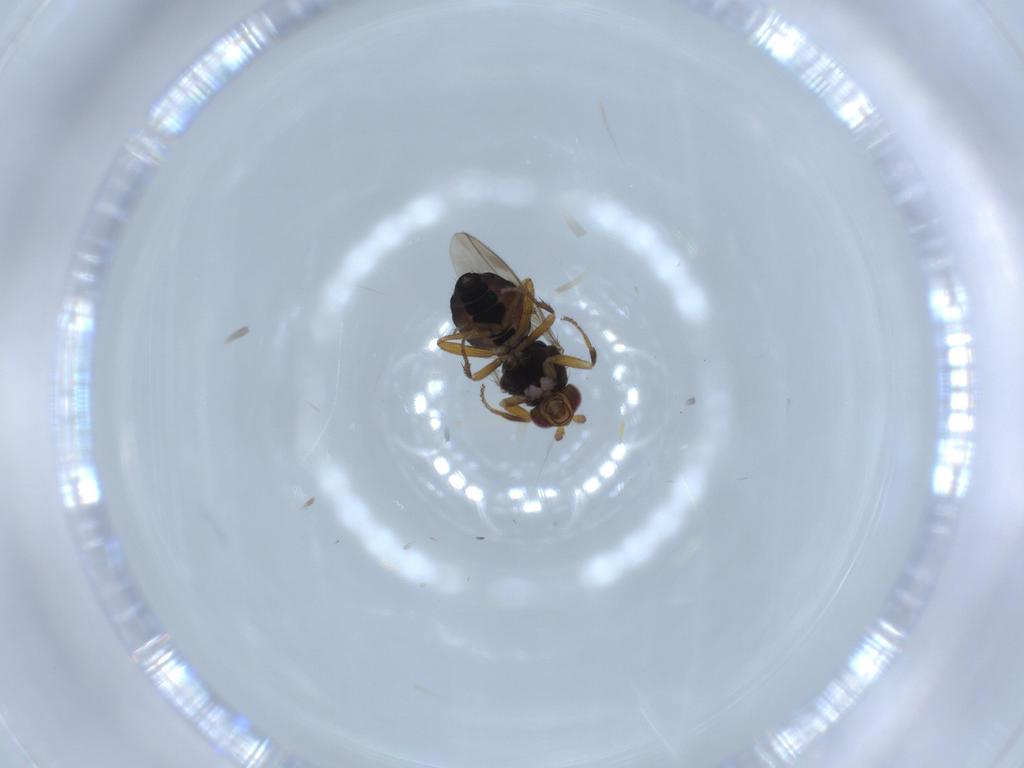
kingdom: Animalia
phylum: Arthropoda
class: Insecta
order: Diptera
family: Sphaeroceridae
